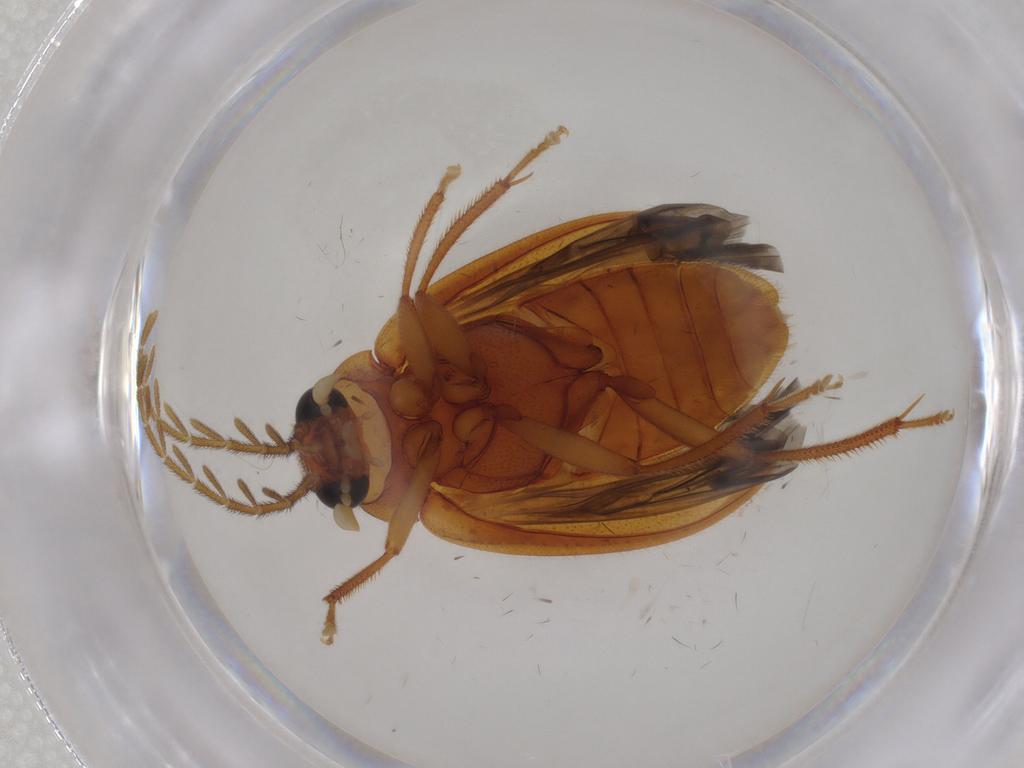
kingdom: Animalia
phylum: Arthropoda
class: Insecta
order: Coleoptera
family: Ptilodactylidae
